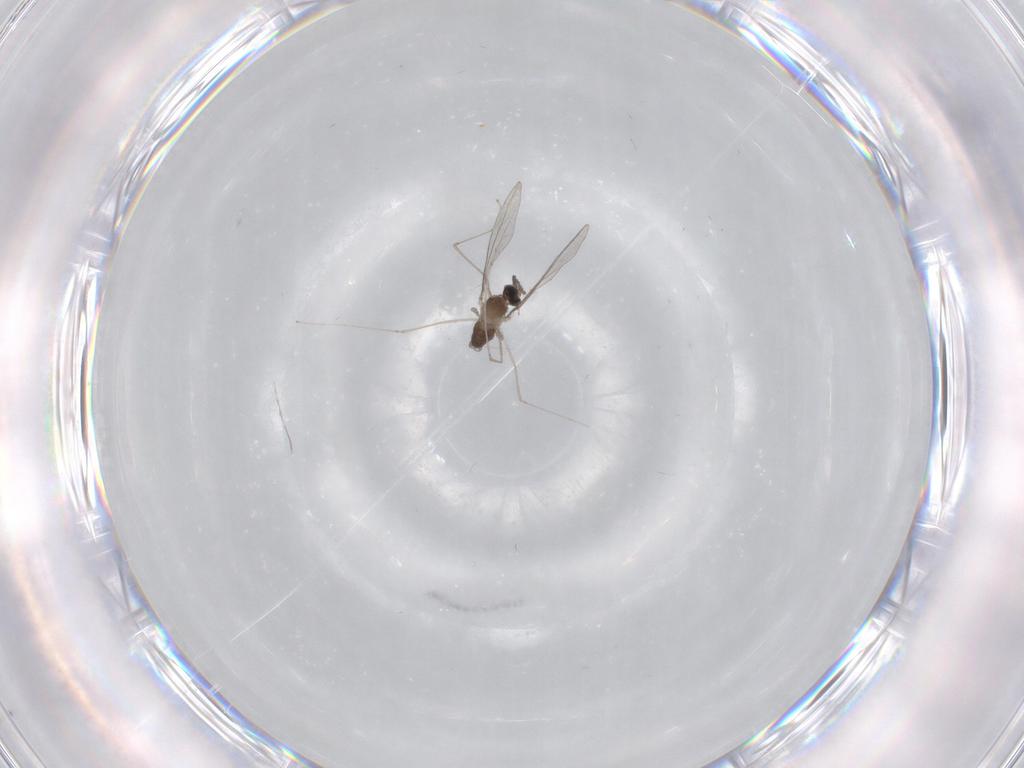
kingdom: Animalia
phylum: Arthropoda
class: Insecta
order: Diptera
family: Cecidomyiidae
